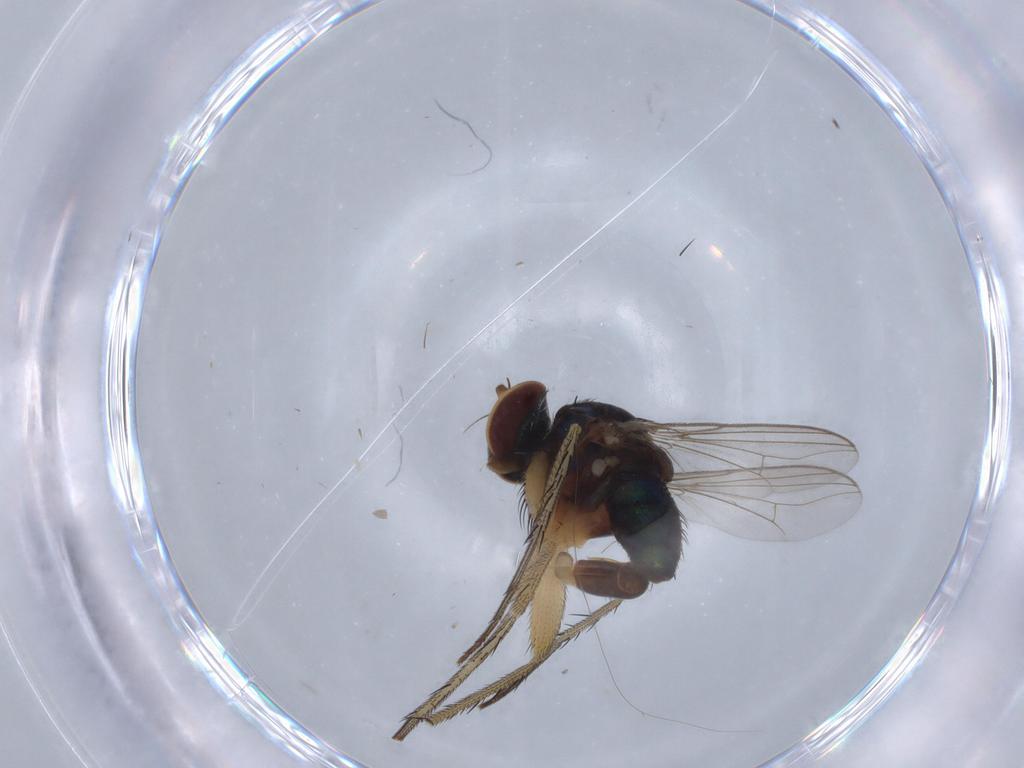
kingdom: Animalia
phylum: Arthropoda
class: Insecta
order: Diptera
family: Dolichopodidae
